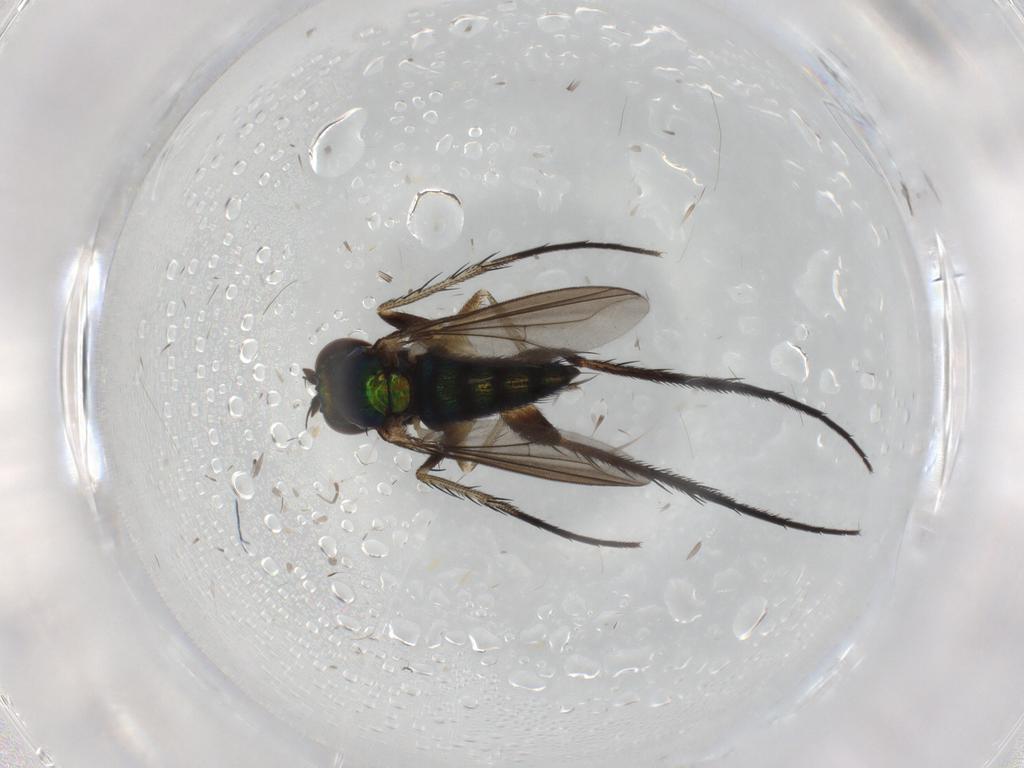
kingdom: Animalia
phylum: Arthropoda
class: Insecta
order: Diptera
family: Dolichopodidae
